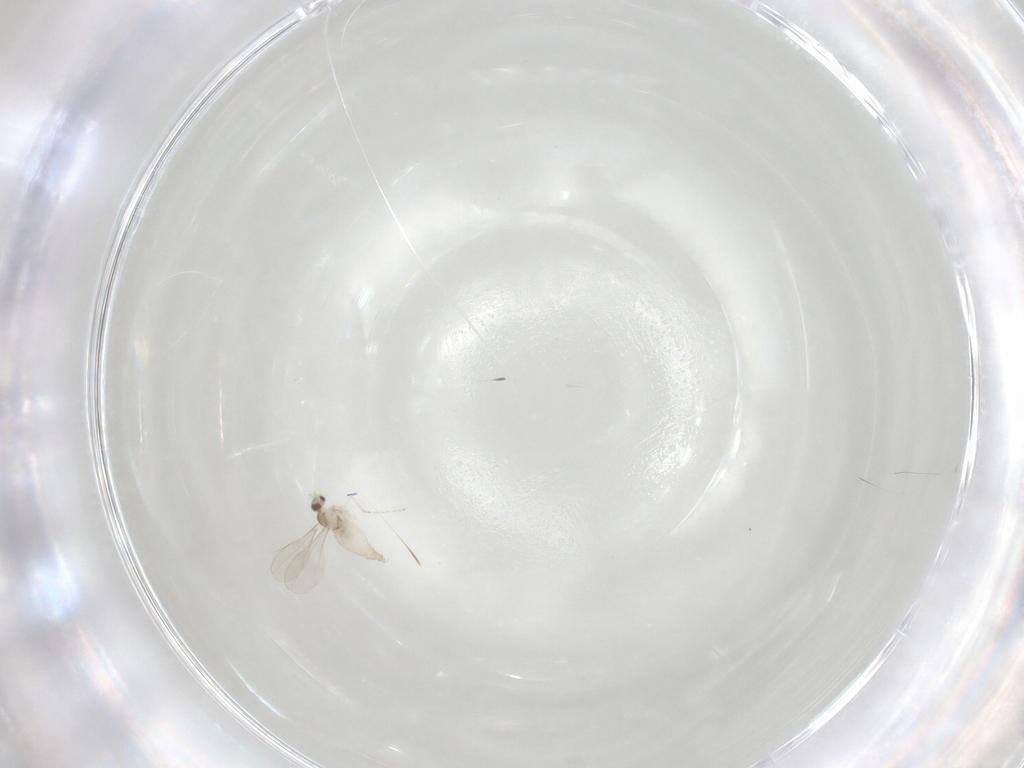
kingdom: Animalia
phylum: Arthropoda
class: Insecta
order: Diptera
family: Cecidomyiidae
